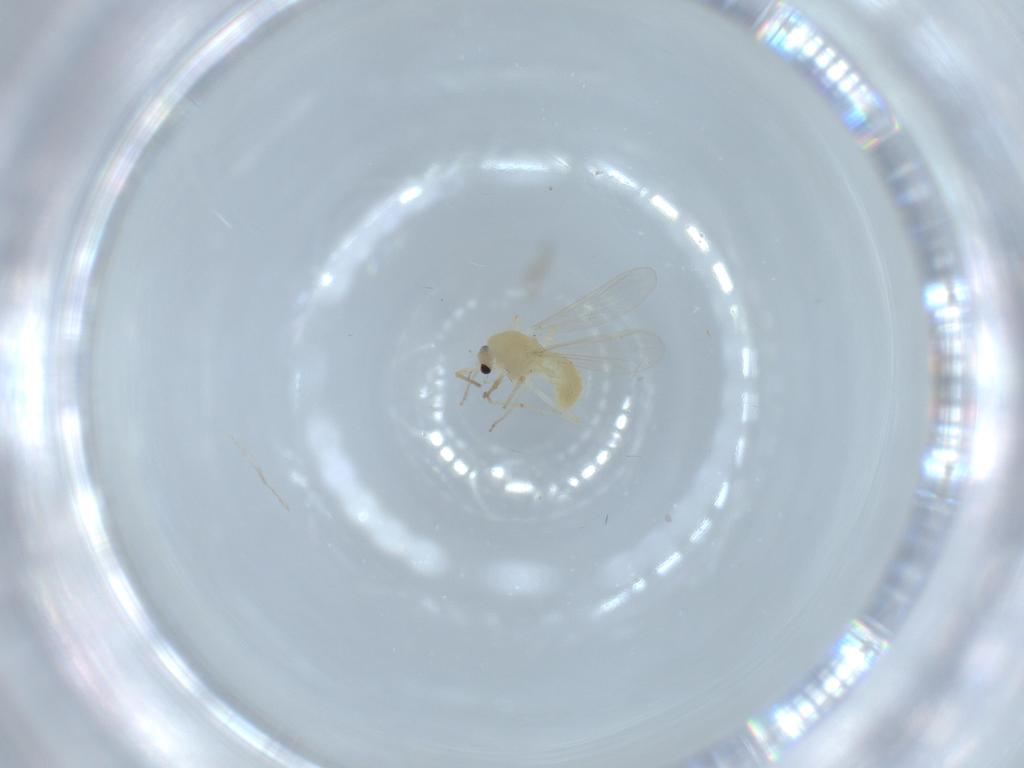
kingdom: Animalia
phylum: Arthropoda
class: Insecta
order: Diptera
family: Chironomidae
